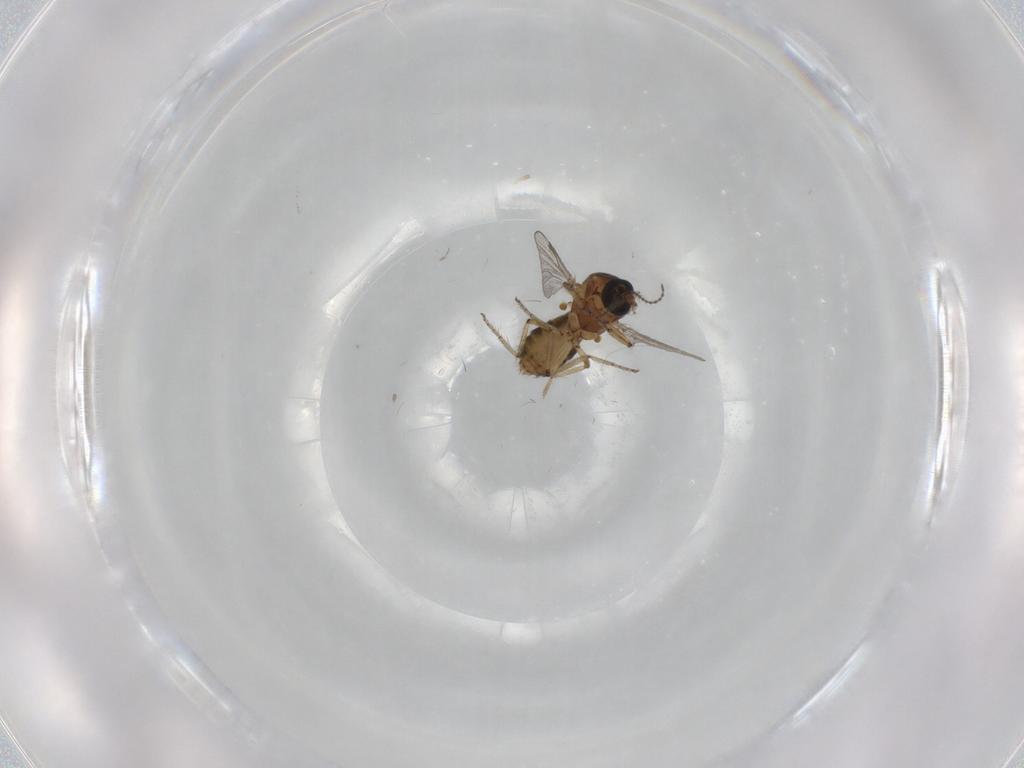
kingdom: Animalia
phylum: Arthropoda
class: Insecta
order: Diptera
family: Ceratopogonidae
